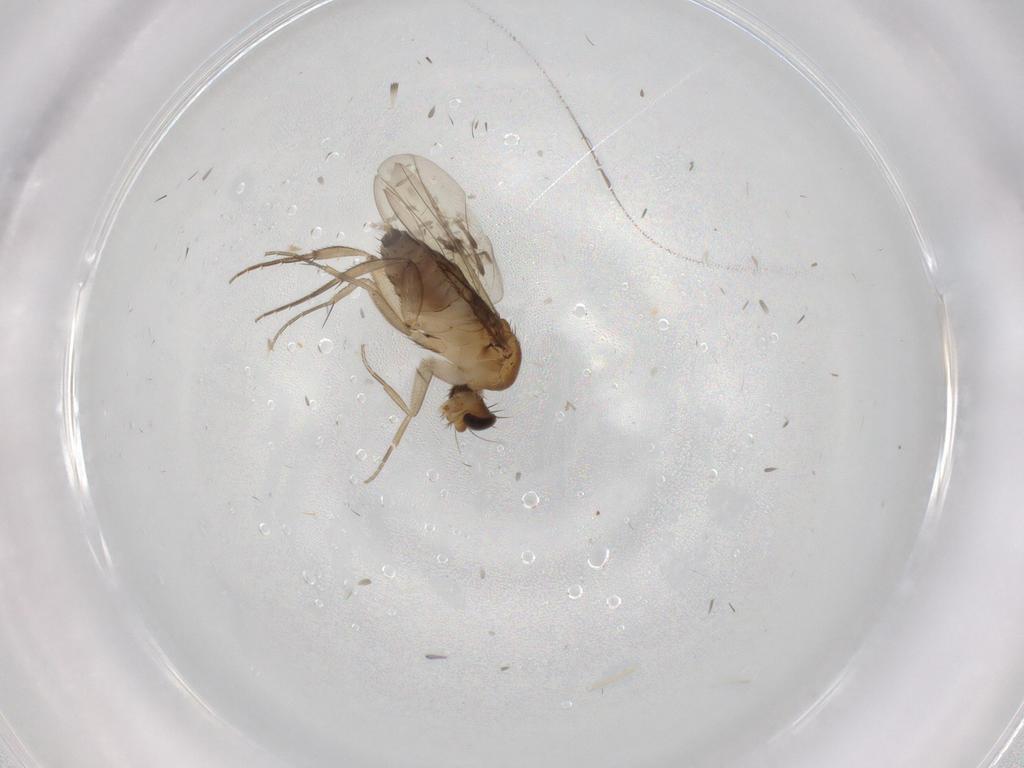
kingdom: Animalia
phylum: Arthropoda
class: Insecta
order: Diptera
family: Phoridae
